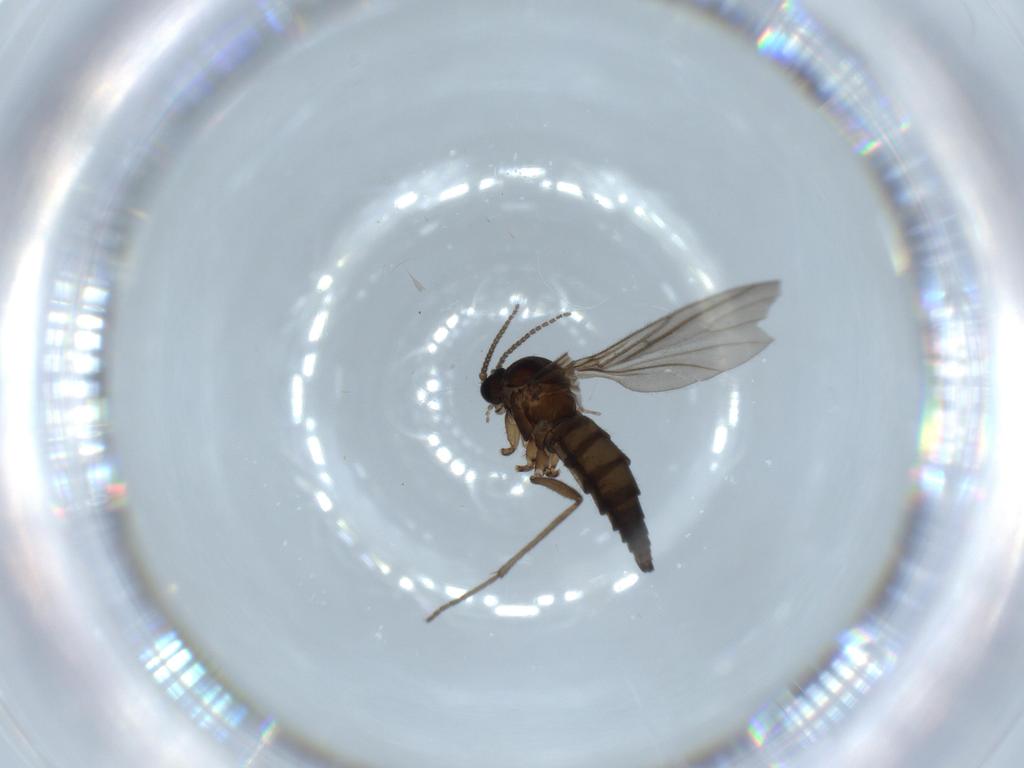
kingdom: Animalia
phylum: Arthropoda
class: Insecta
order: Diptera
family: Sciaridae
